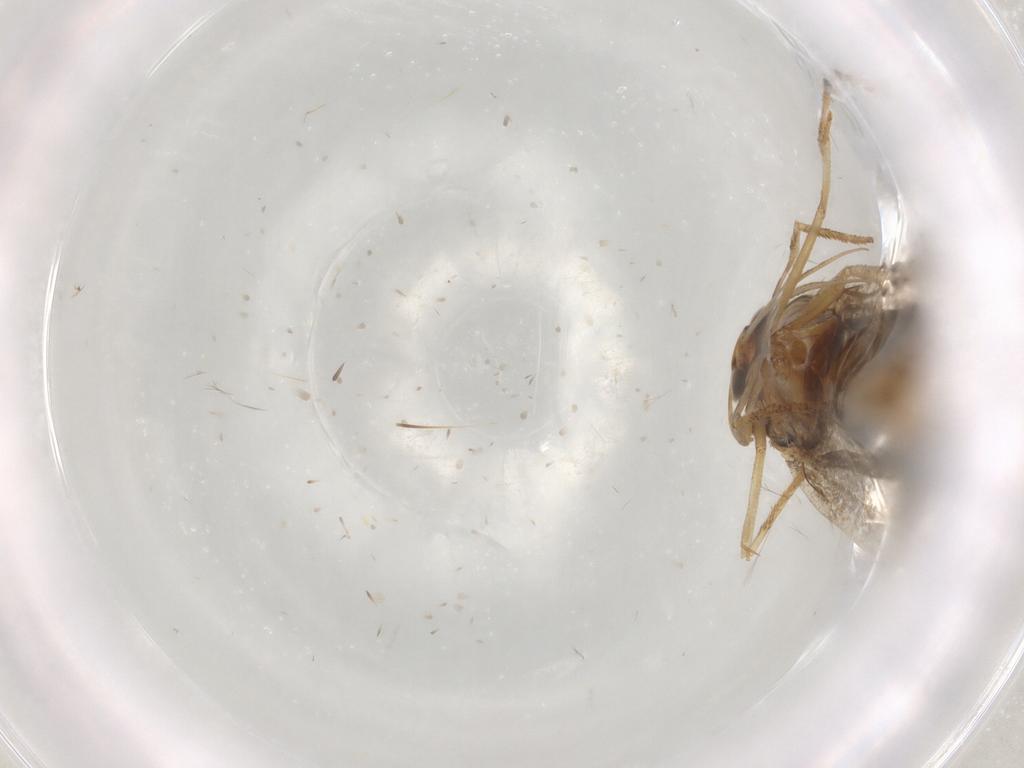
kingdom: Animalia
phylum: Arthropoda
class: Insecta
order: Lepidoptera
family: Gelechiidae
